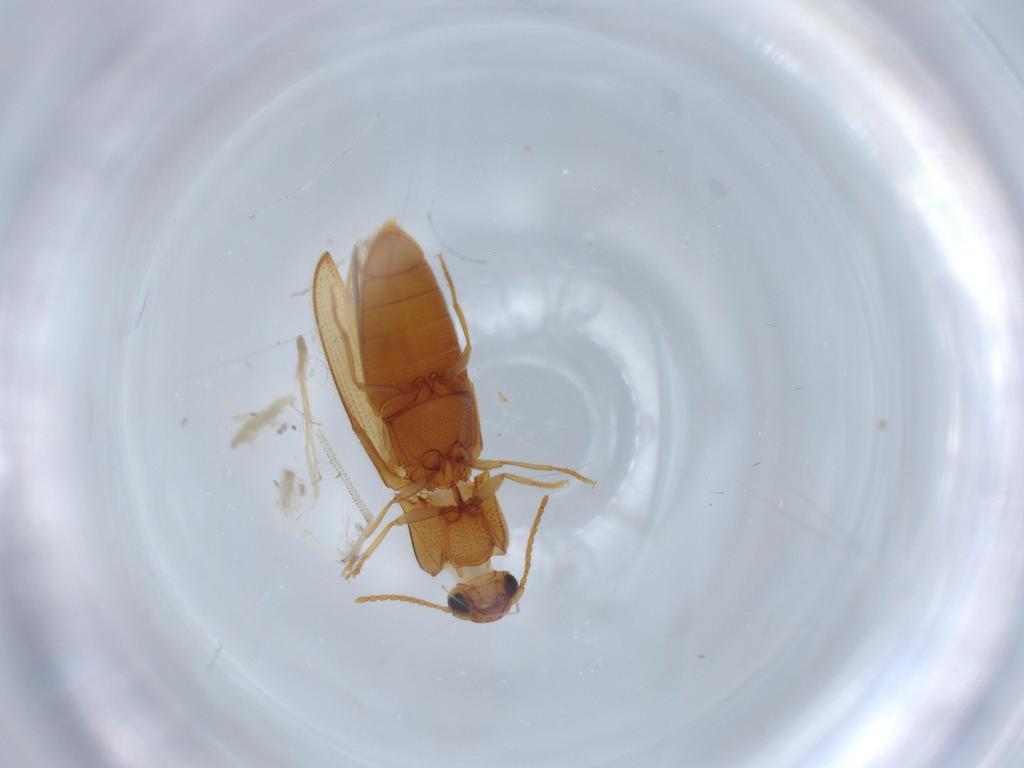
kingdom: Animalia
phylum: Arthropoda
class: Insecta
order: Coleoptera
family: Elateridae
